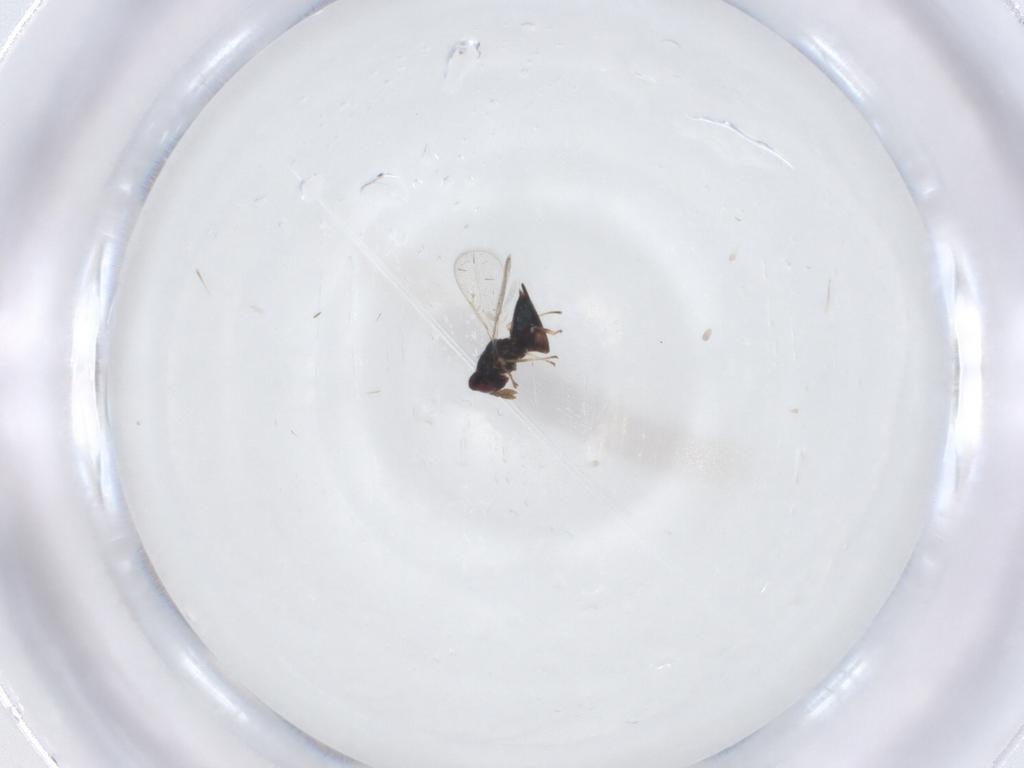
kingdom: Animalia
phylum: Arthropoda
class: Insecta
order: Hymenoptera
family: Eulophidae
